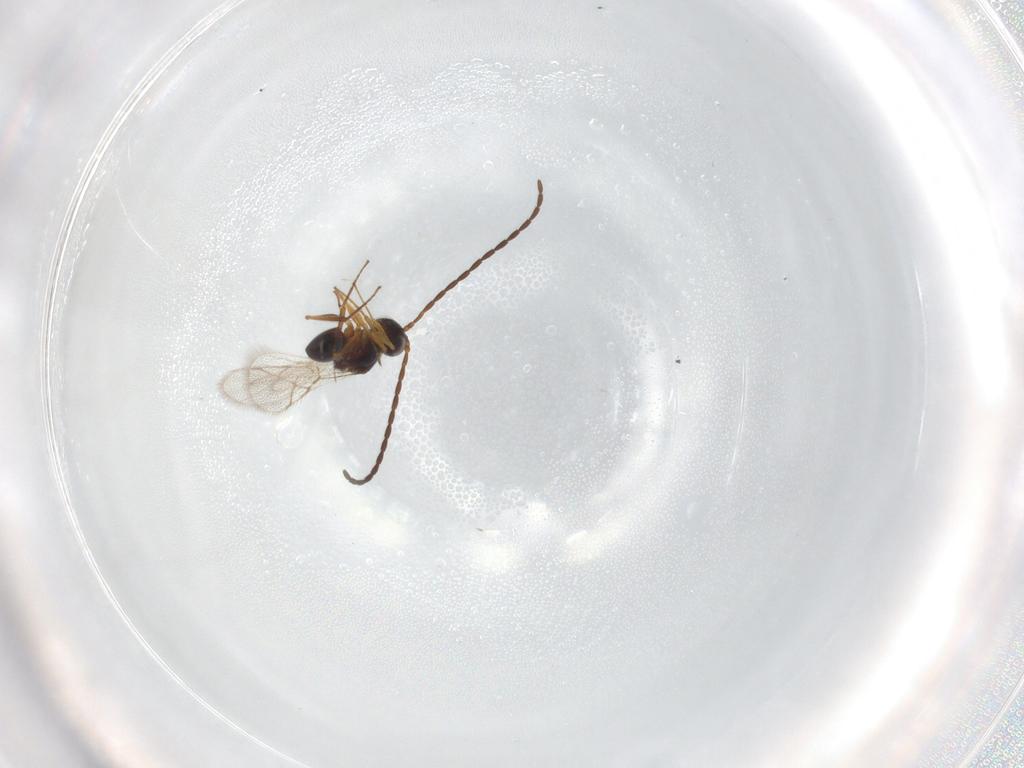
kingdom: Animalia
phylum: Arthropoda
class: Insecta
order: Hymenoptera
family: Figitidae
